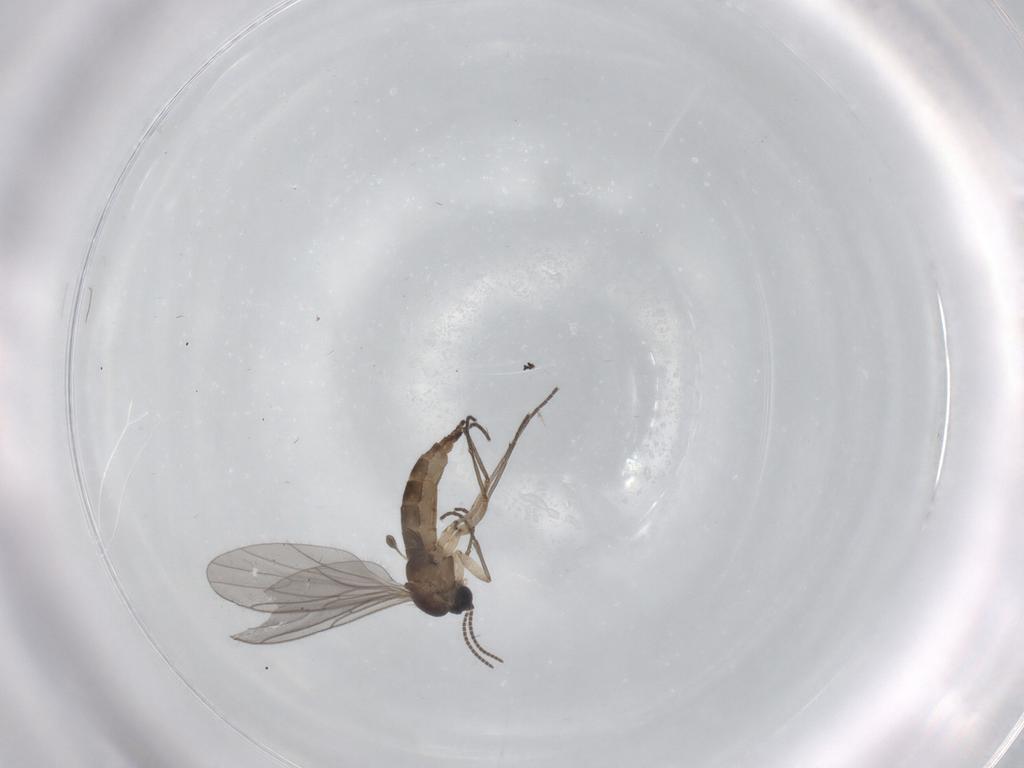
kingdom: Animalia
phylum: Arthropoda
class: Insecta
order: Diptera
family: Sciaridae
